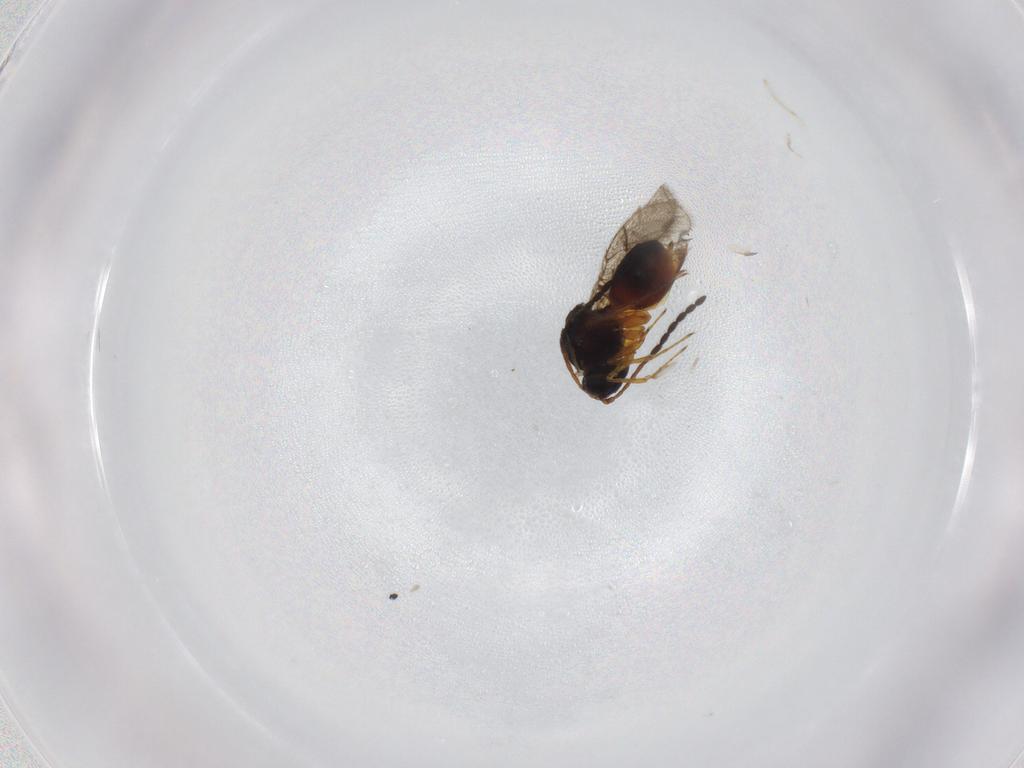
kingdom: Animalia
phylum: Arthropoda
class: Insecta
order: Hymenoptera
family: Figitidae
